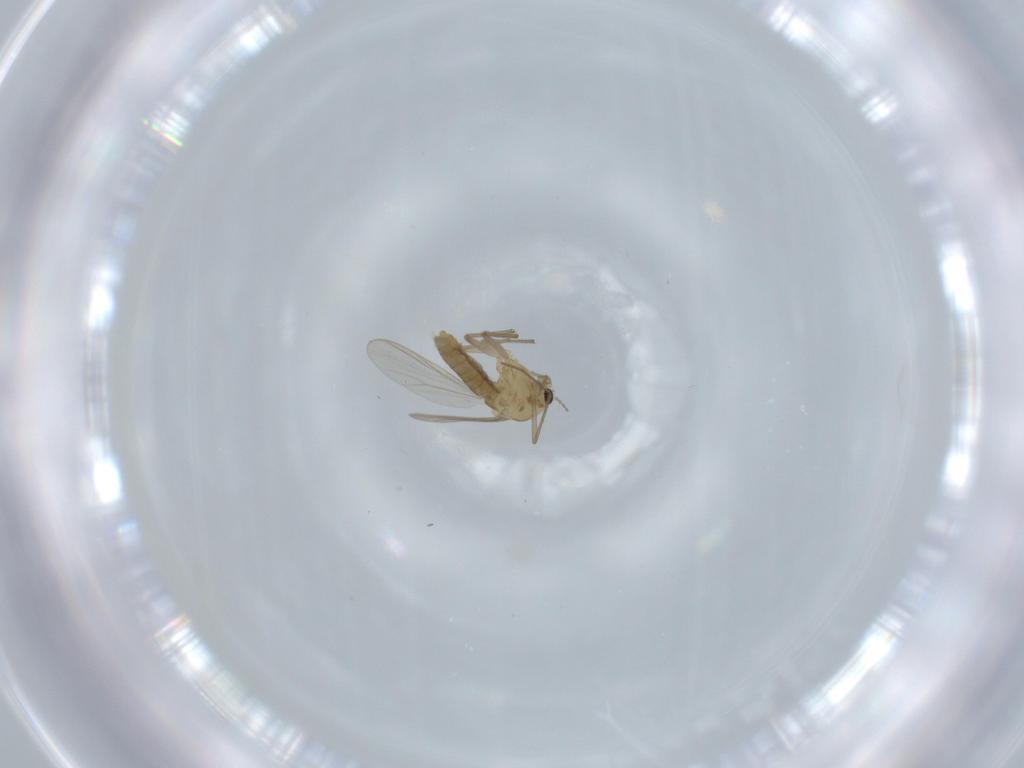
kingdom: Animalia
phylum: Arthropoda
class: Insecta
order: Diptera
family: Chironomidae
